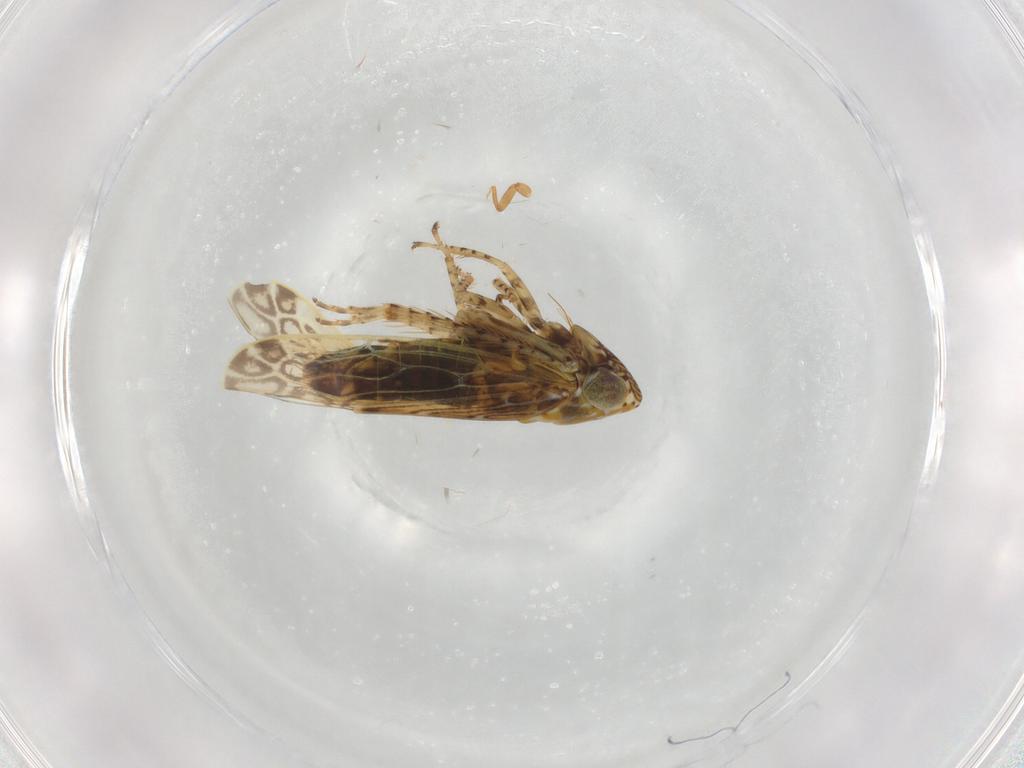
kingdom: Animalia
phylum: Arthropoda
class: Insecta
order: Hemiptera
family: Cicadellidae
